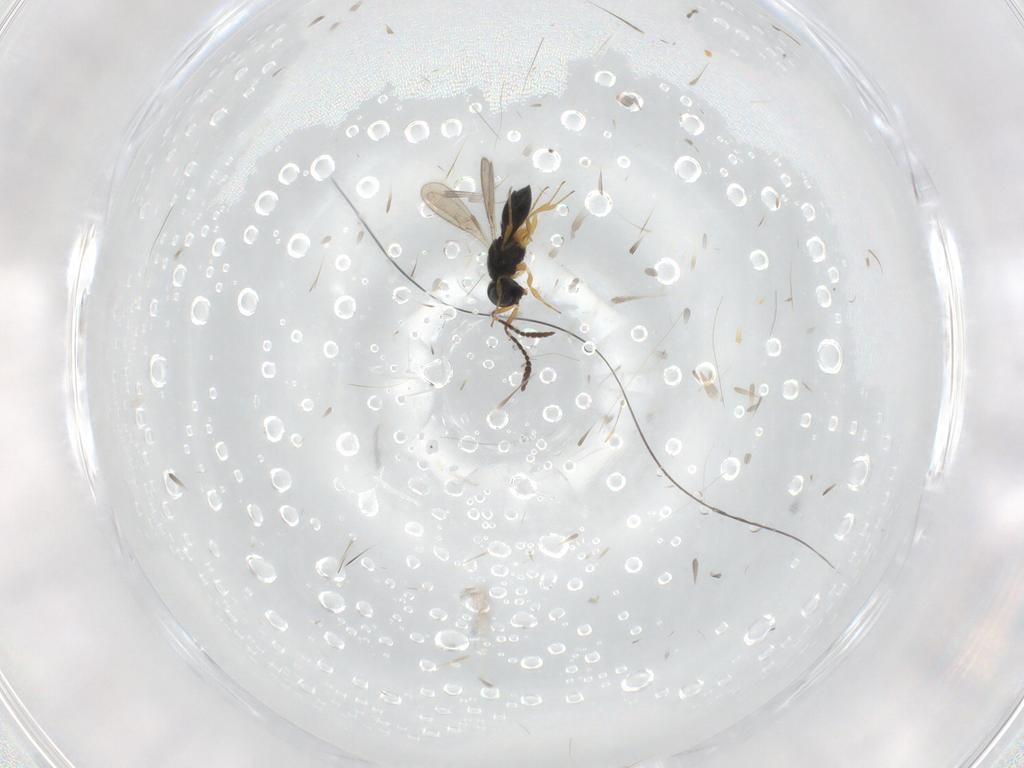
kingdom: Animalia
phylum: Arthropoda
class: Insecta
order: Hymenoptera
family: Scelionidae
